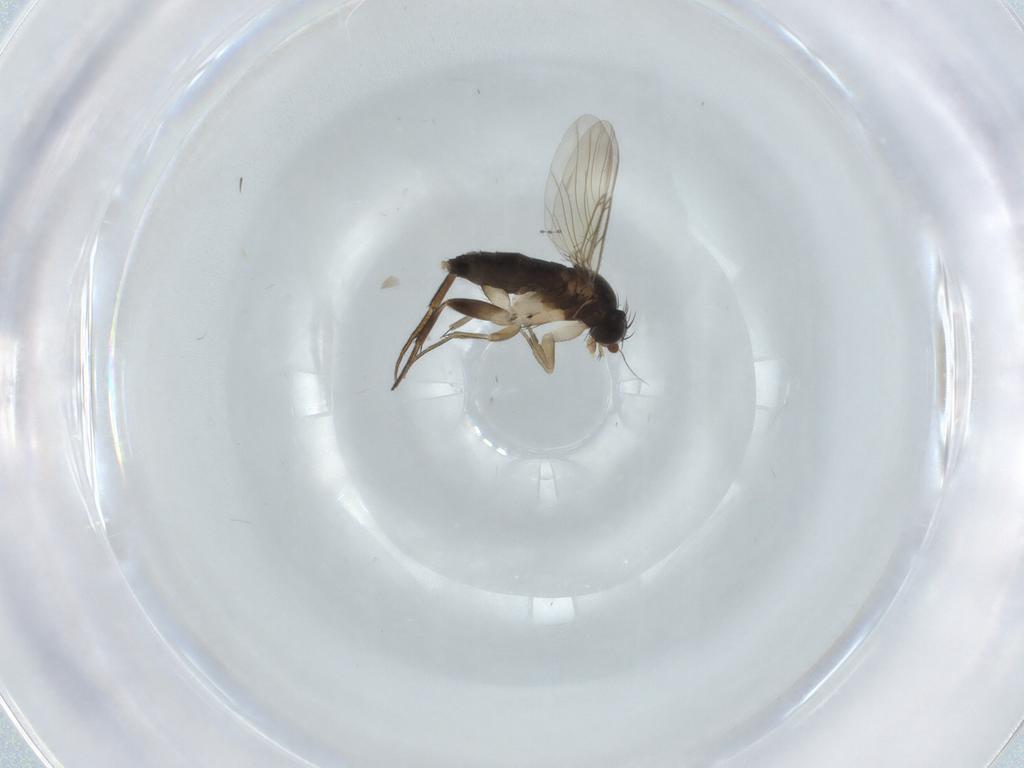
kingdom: Animalia
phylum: Arthropoda
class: Insecta
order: Diptera
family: Phoridae
